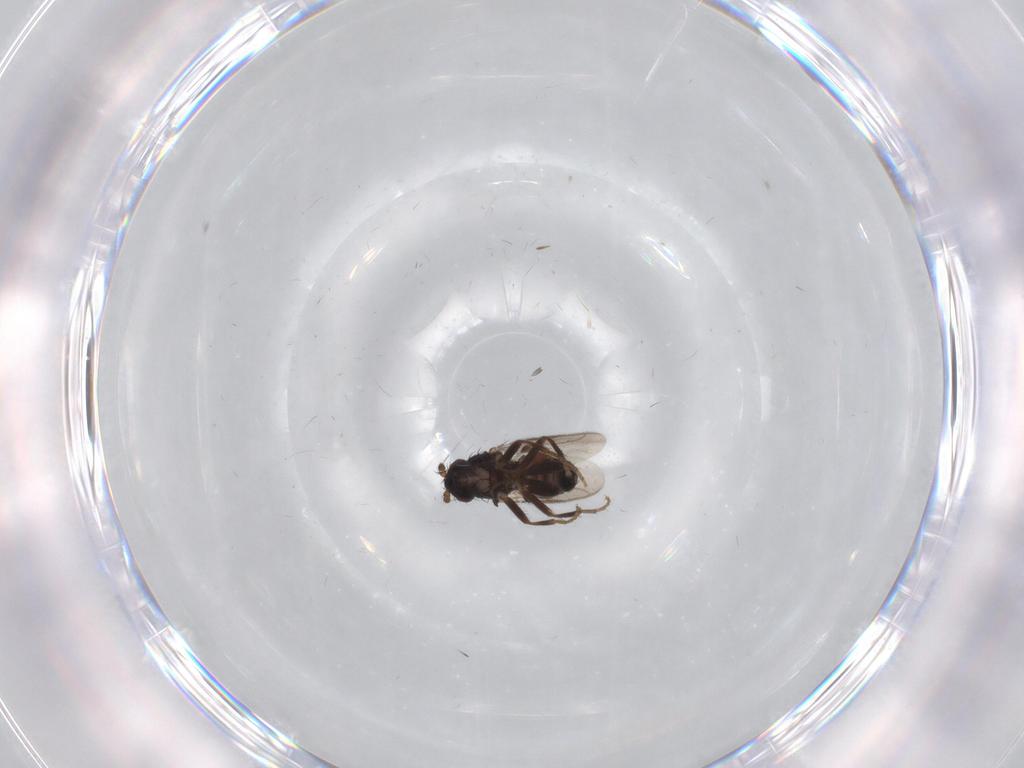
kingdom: Animalia
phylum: Arthropoda
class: Insecta
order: Diptera
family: Sphaeroceridae
